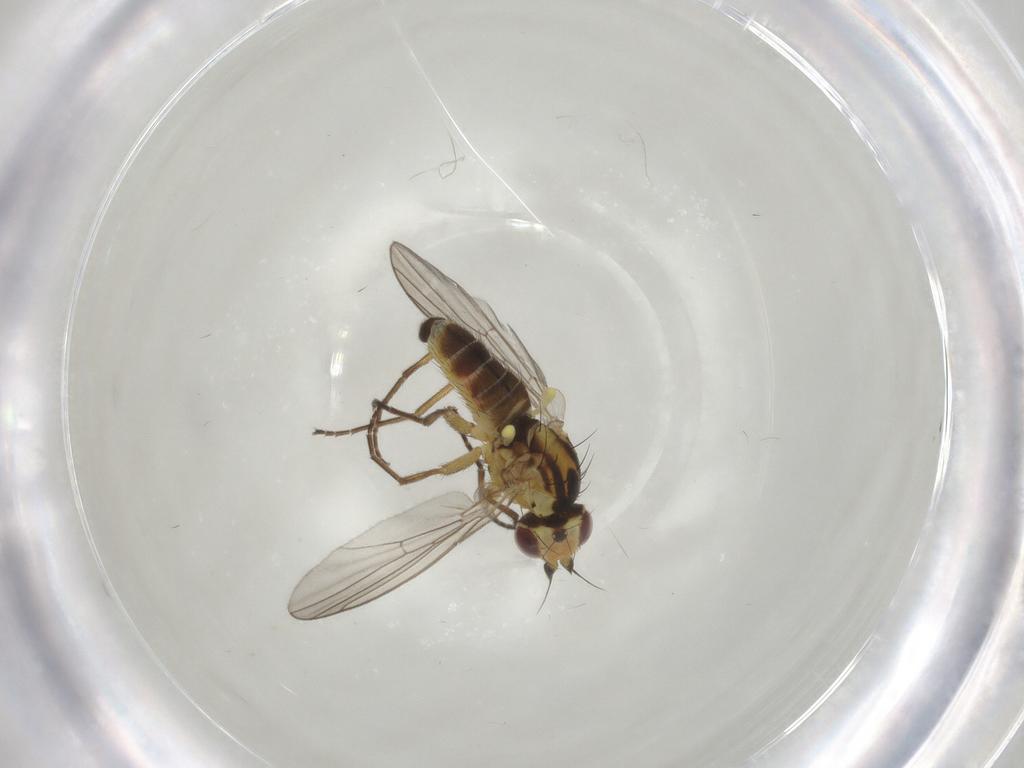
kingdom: Animalia
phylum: Arthropoda
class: Insecta
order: Diptera
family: Agromyzidae
